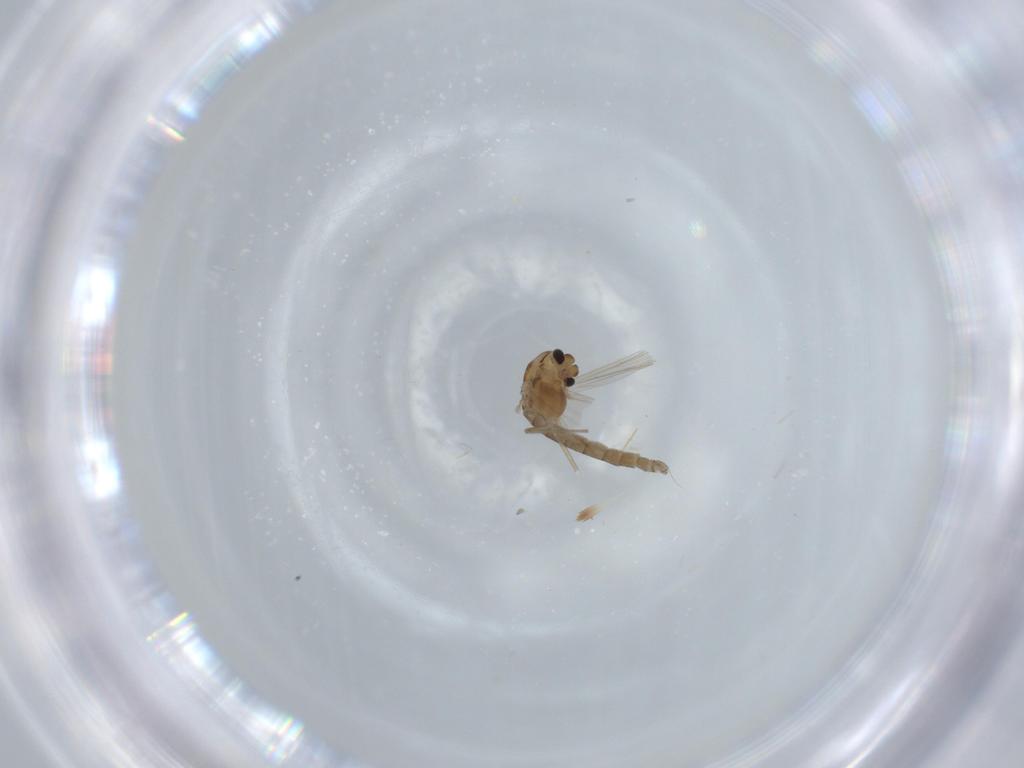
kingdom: Animalia
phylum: Arthropoda
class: Insecta
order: Diptera
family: Chironomidae
